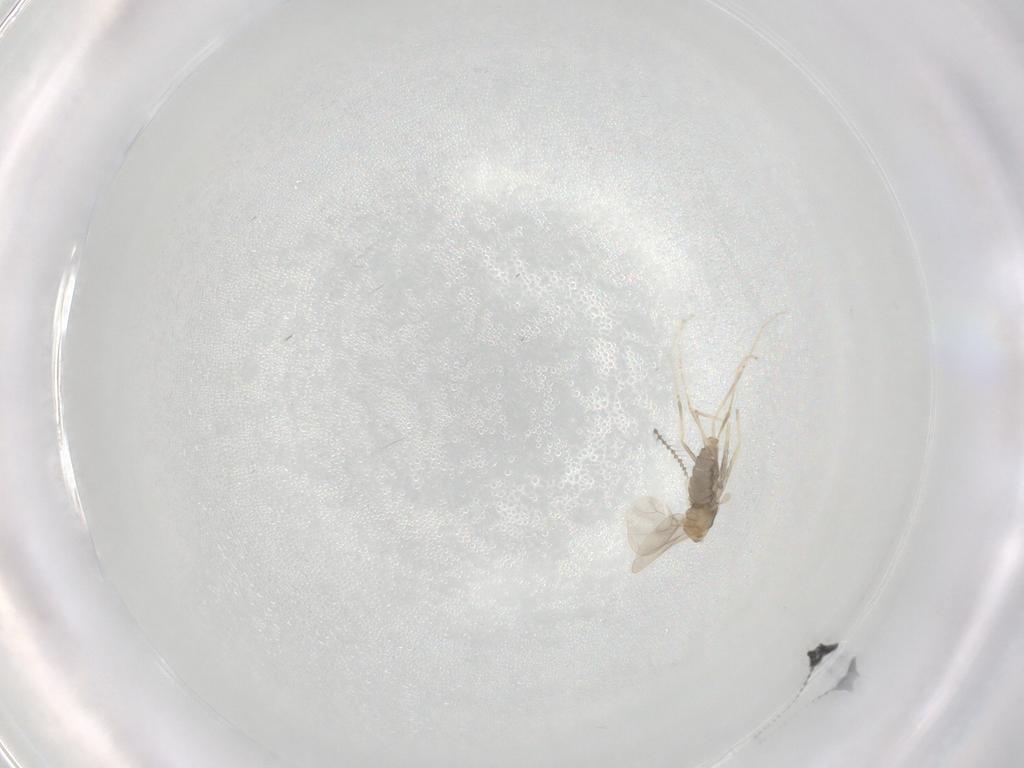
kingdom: Animalia
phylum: Arthropoda
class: Insecta
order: Diptera
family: Cecidomyiidae
